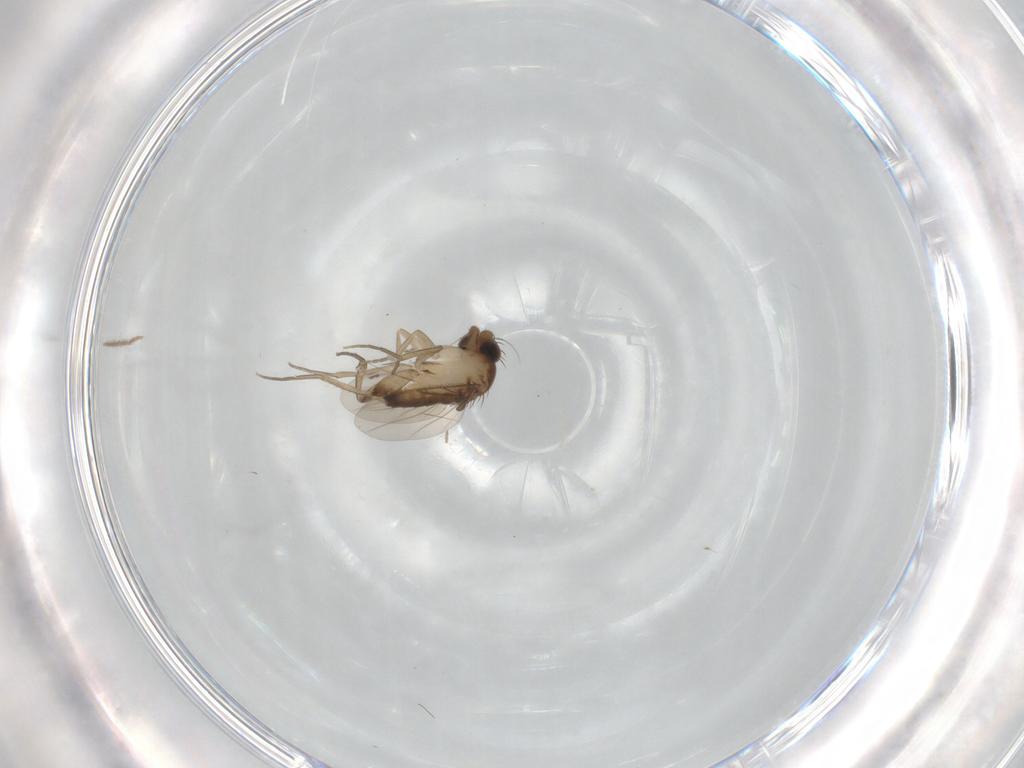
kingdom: Animalia
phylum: Arthropoda
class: Insecta
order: Diptera
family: Phoridae
